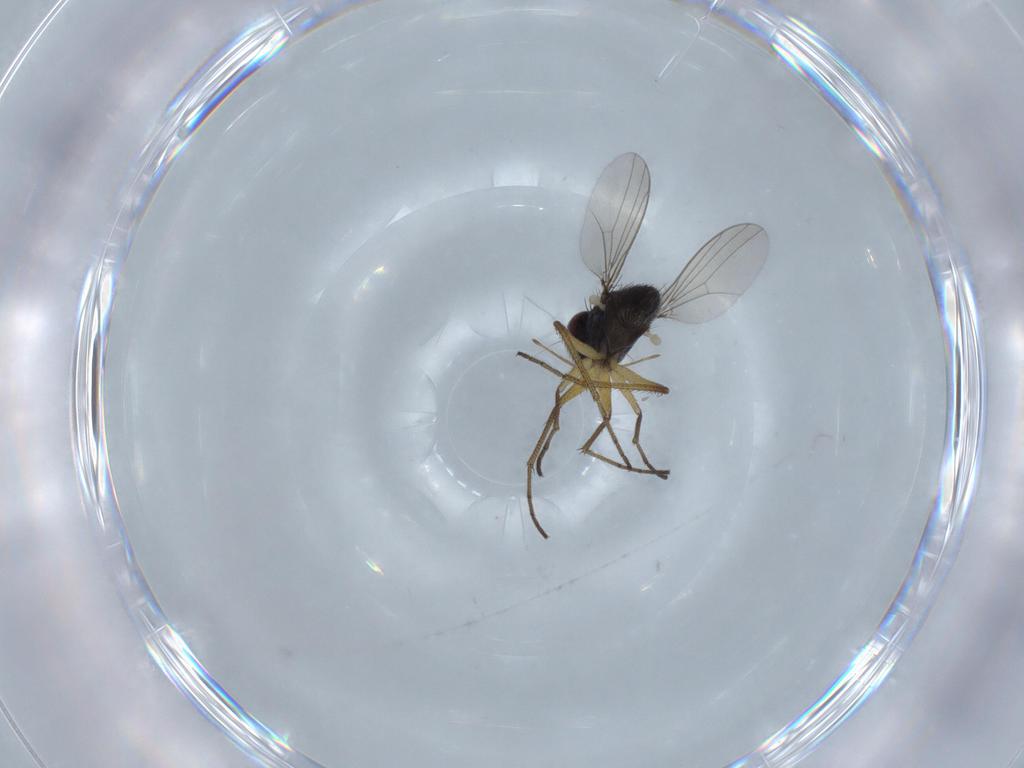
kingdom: Animalia
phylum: Arthropoda
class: Insecta
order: Diptera
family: Dolichopodidae
